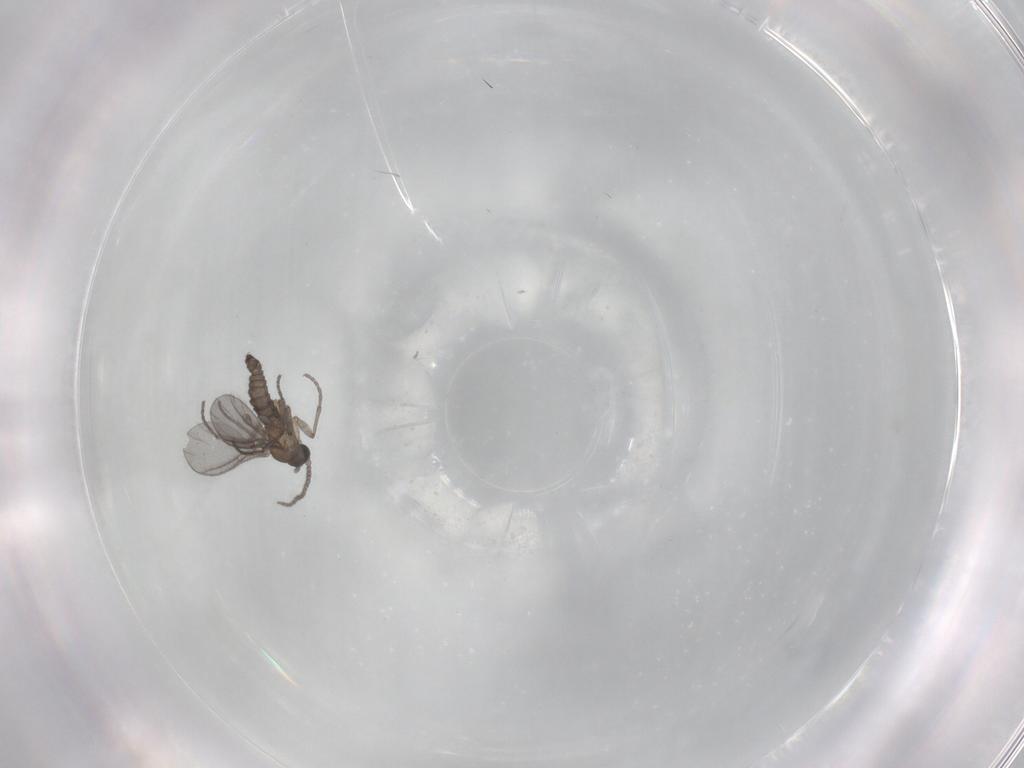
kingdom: Animalia
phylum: Arthropoda
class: Insecta
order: Diptera
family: Sciaridae
